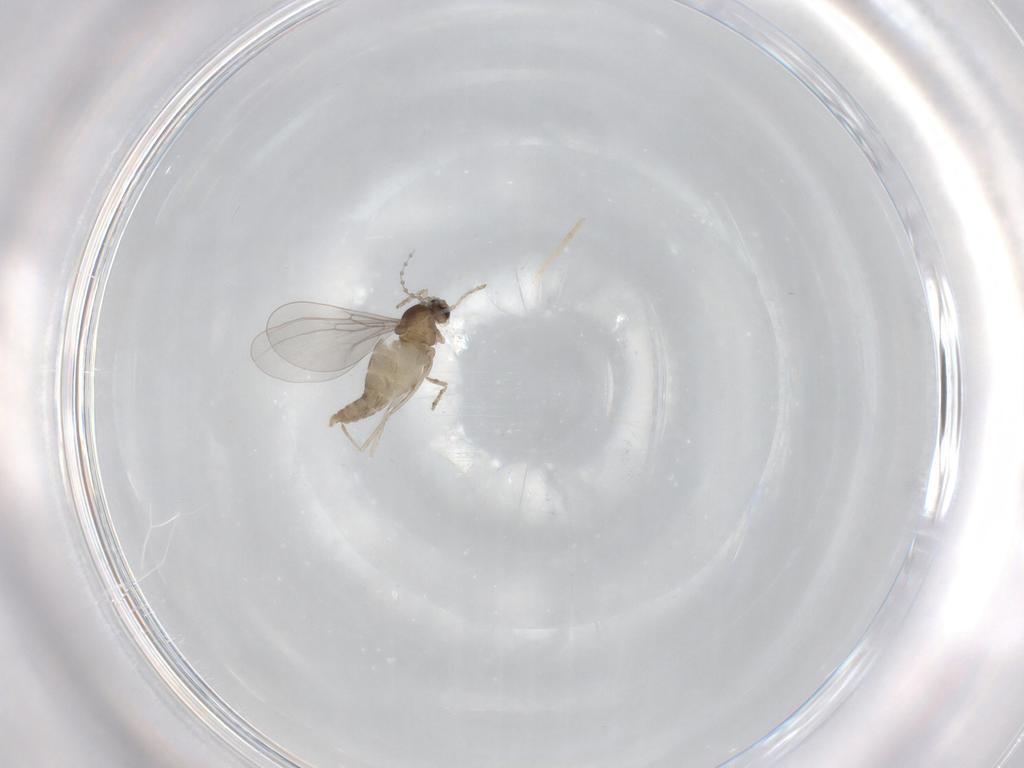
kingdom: Animalia
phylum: Arthropoda
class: Insecta
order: Diptera
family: Cecidomyiidae
